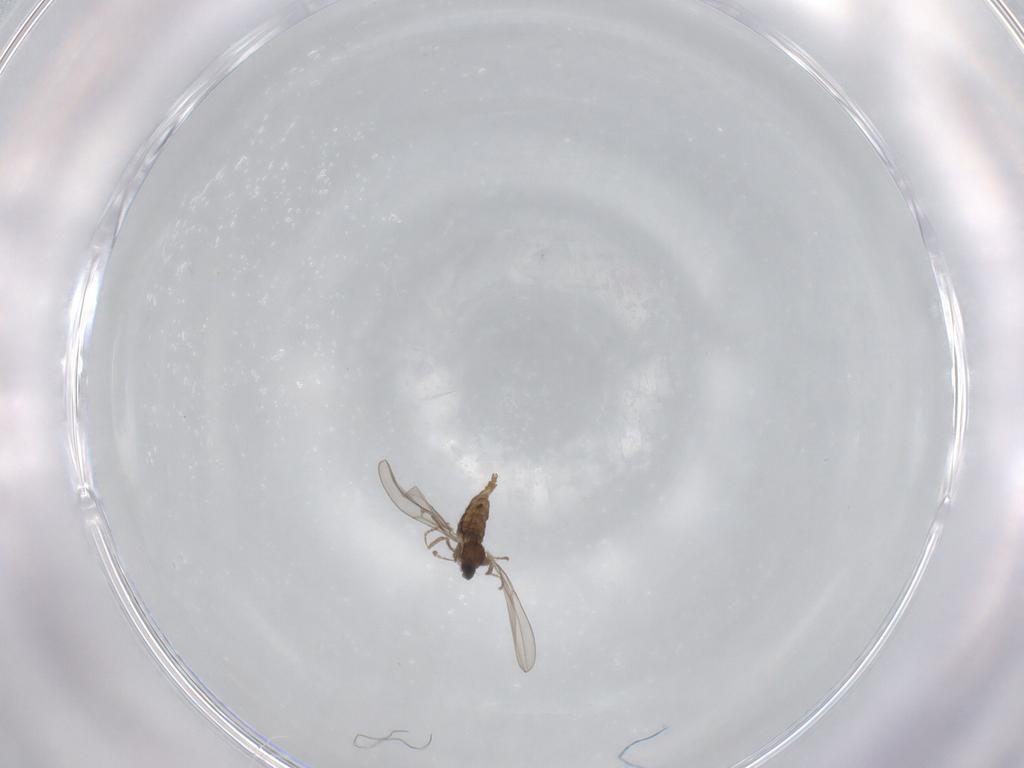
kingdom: Animalia
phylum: Arthropoda
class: Insecta
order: Diptera
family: Cecidomyiidae
